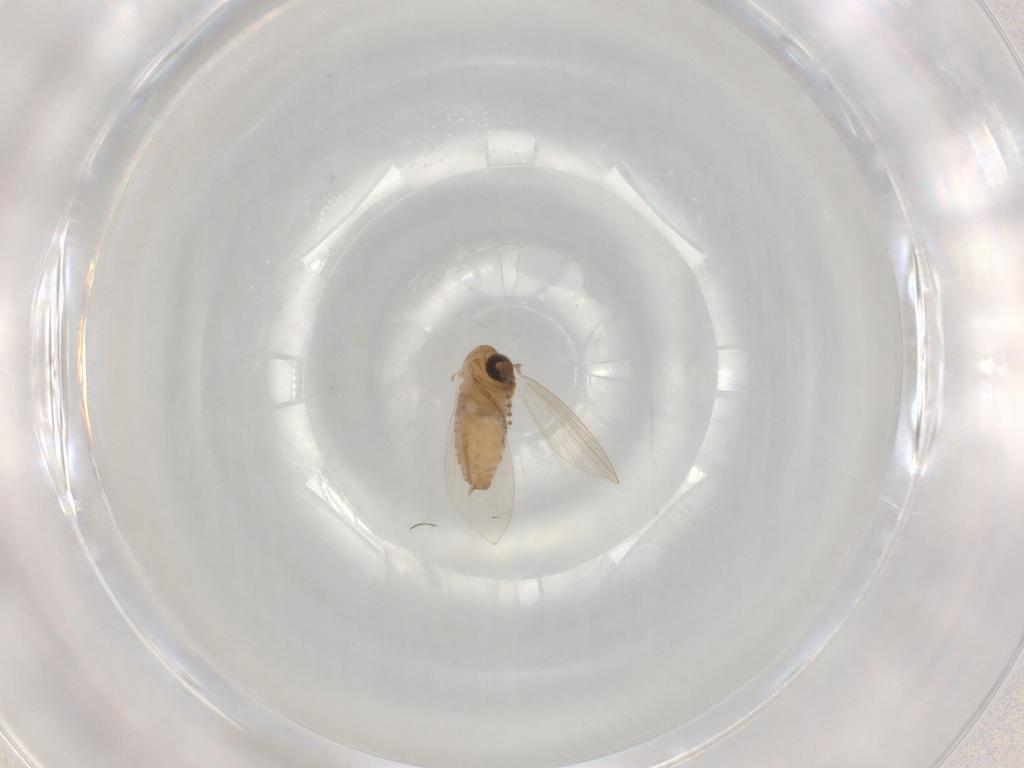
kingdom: Animalia
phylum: Arthropoda
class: Insecta
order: Diptera
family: Psychodidae
